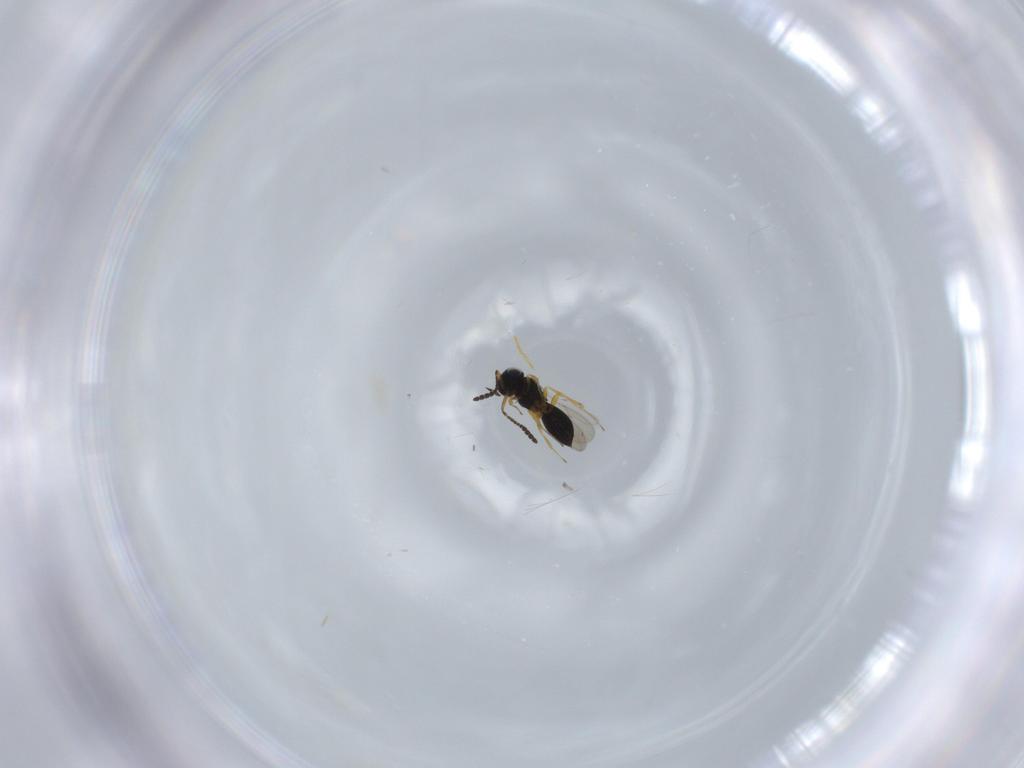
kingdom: Animalia
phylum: Arthropoda
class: Insecta
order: Hymenoptera
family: Scelionidae
